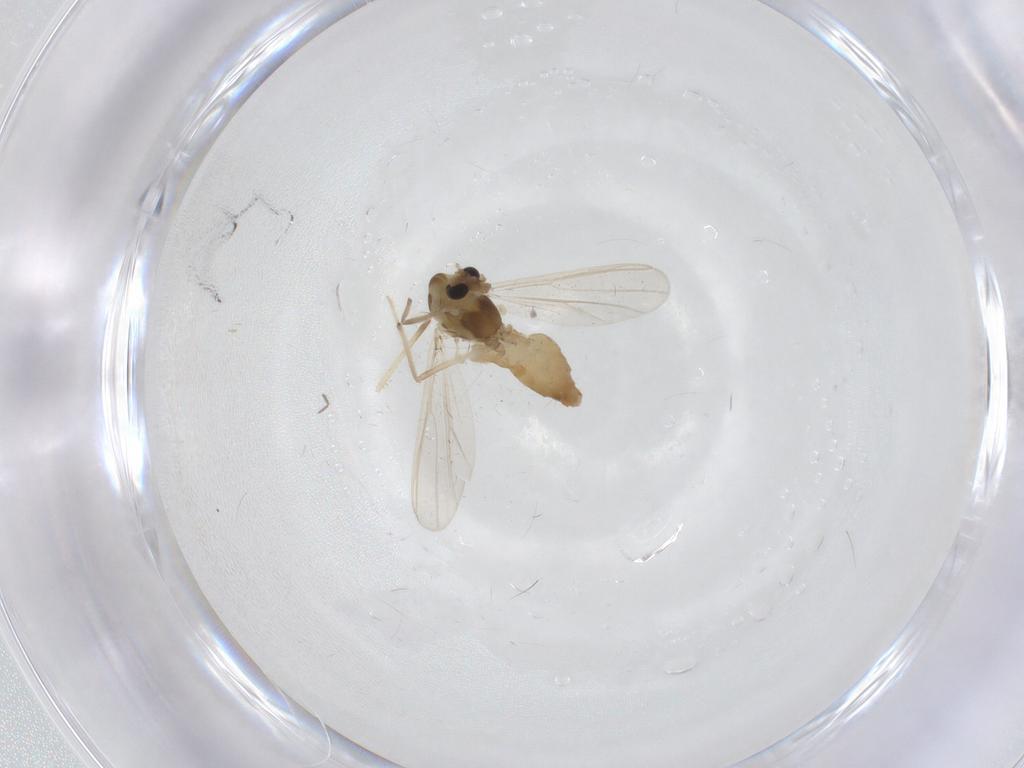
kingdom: Animalia
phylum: Arthropoda
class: Insecta
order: Diptera
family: Chironomidae
